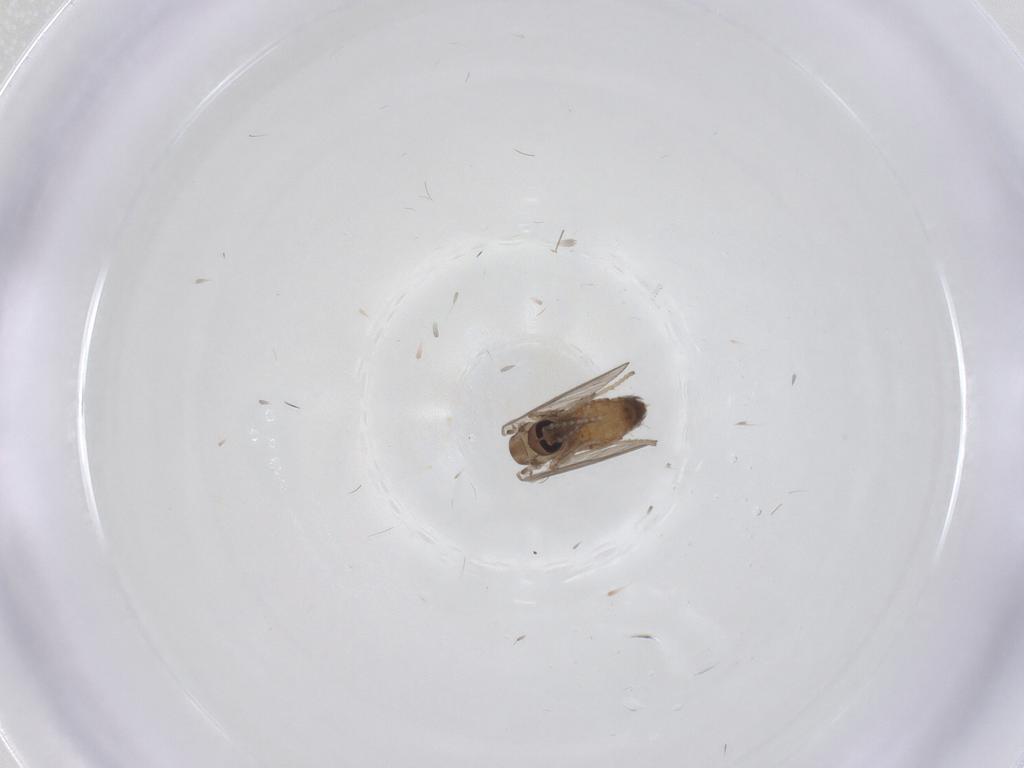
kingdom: Animalia
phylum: Arthropoda
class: Insecta
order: Diptera
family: Psychodidae
